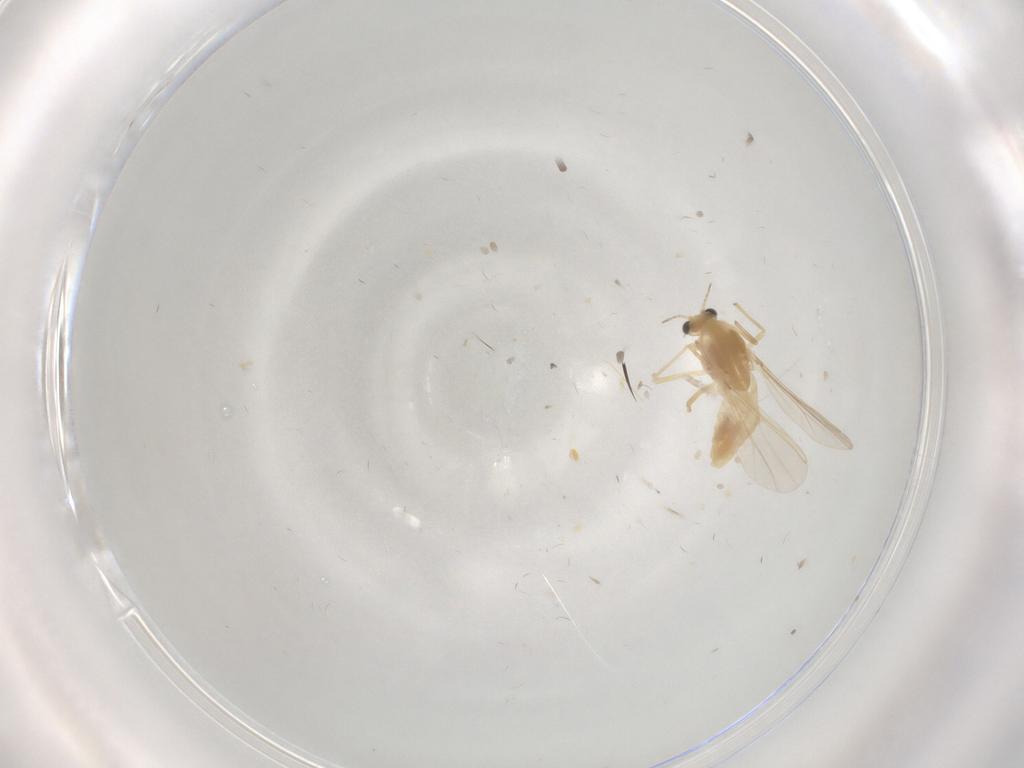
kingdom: Animalia
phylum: Arthropoda
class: Insecta
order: Diptera
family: Chironomidae
